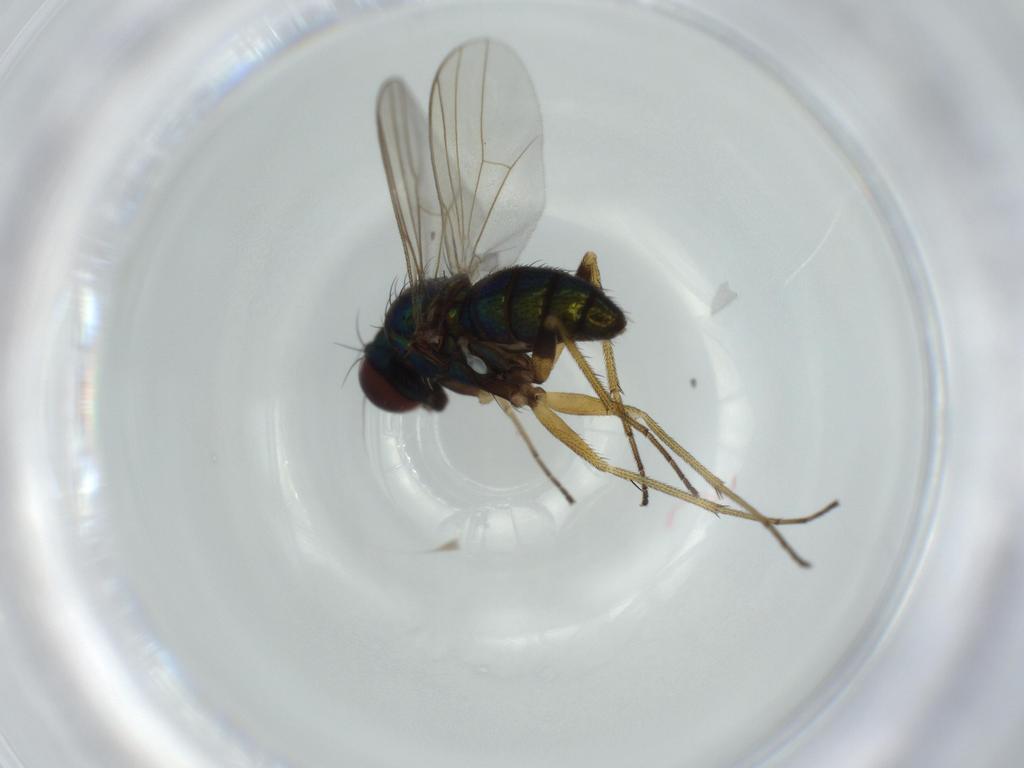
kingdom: Animalia
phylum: Arthropoda
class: Insecta
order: Diptera
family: Dolichopodidae
